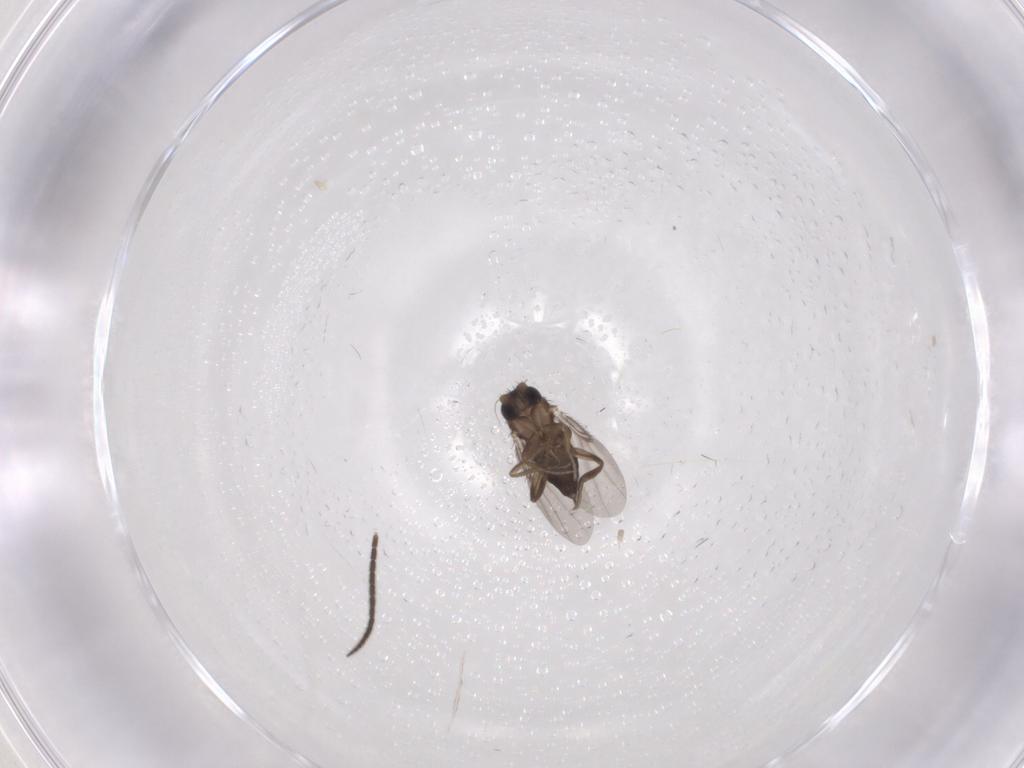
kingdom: Animalia
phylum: Arthropoda
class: Insecta
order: Diptera
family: Phoridae
